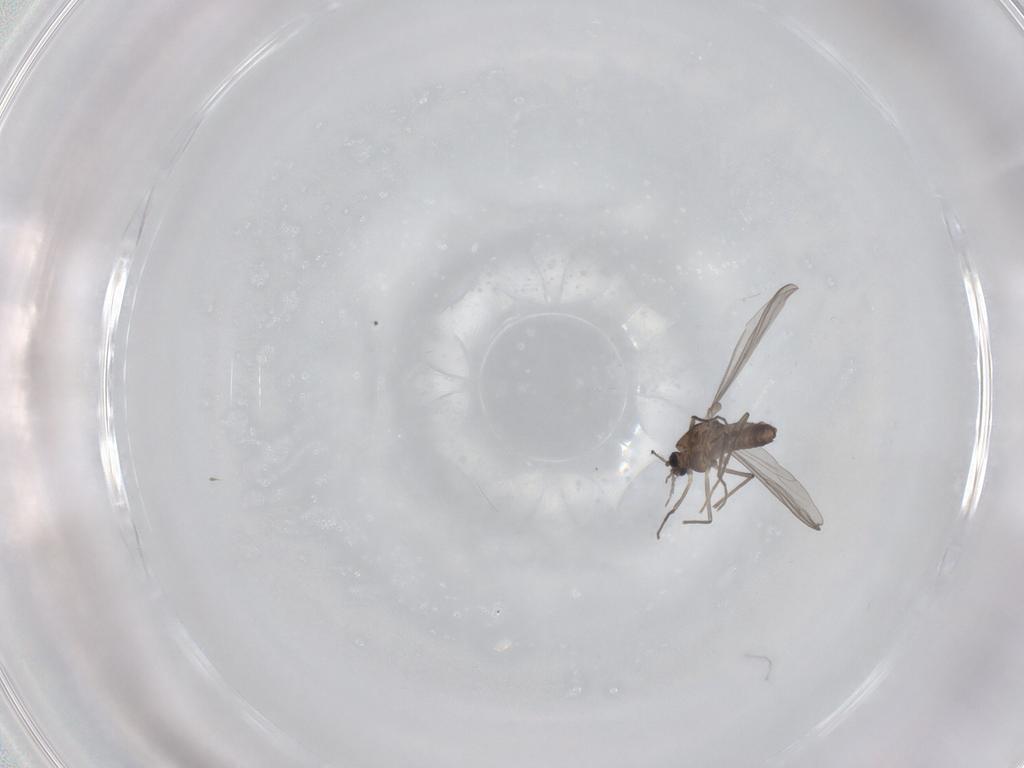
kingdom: Animalia
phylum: Arthropoda
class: Insecta
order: Diptera
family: Chironomidae
